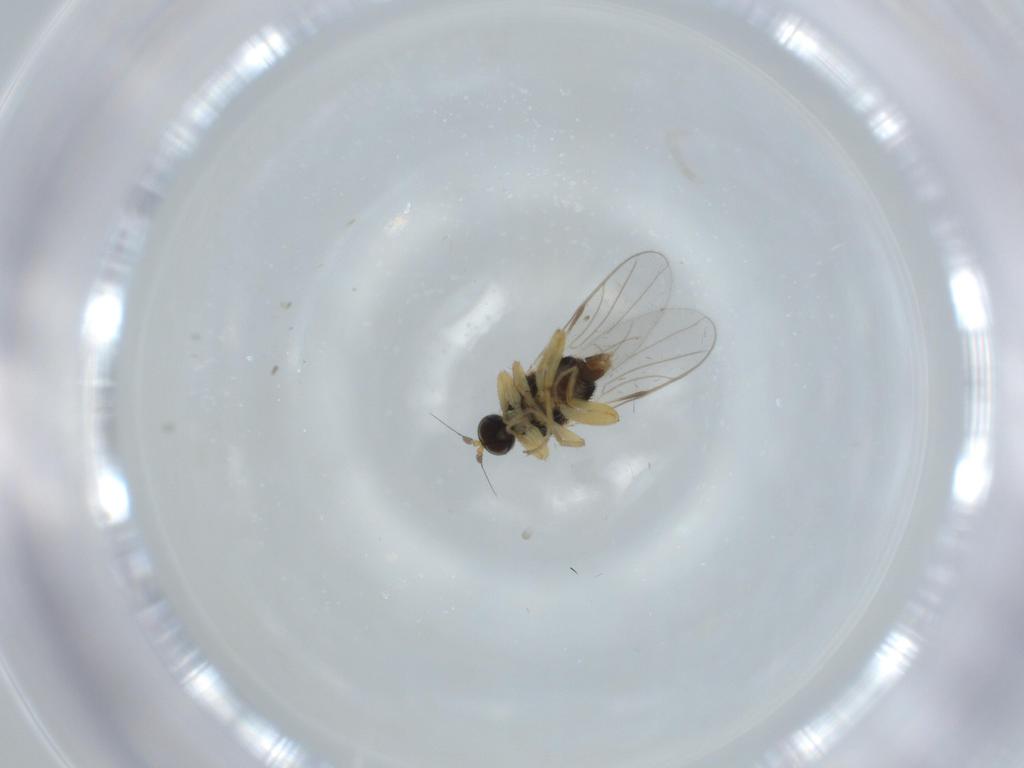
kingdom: Animalia
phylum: Arthropoda
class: Insecta
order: Diptera
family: Hybotidae
